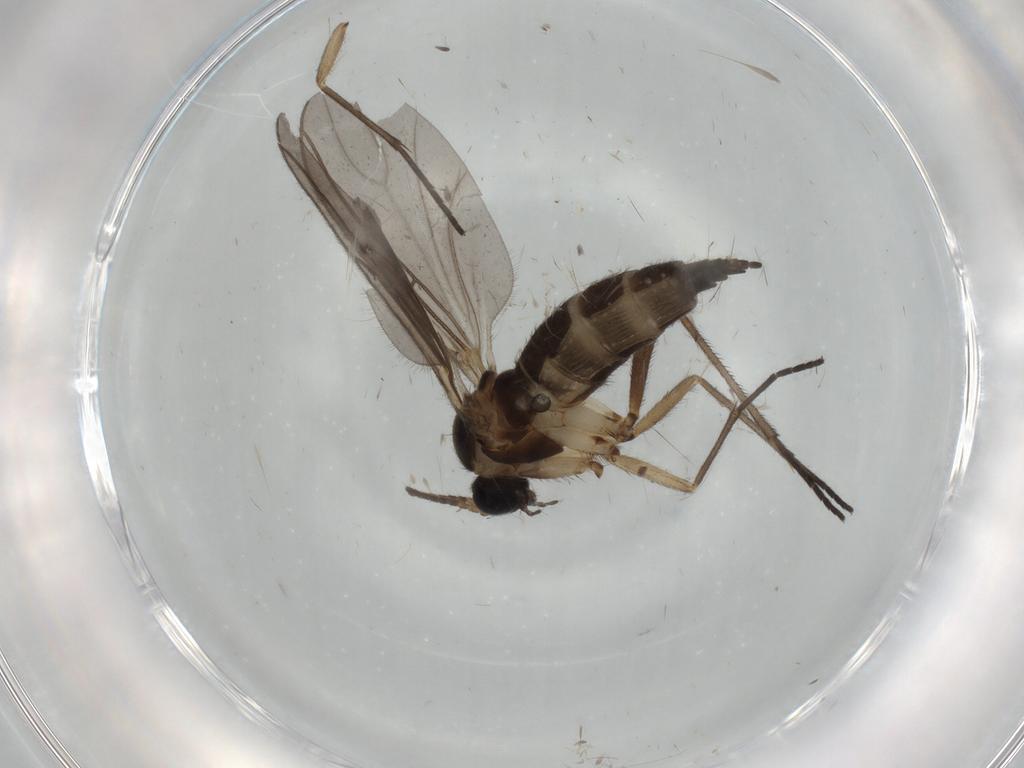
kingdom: Animalia
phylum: Arthropoda
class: Insecta
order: Diptera
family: Sciaridae
